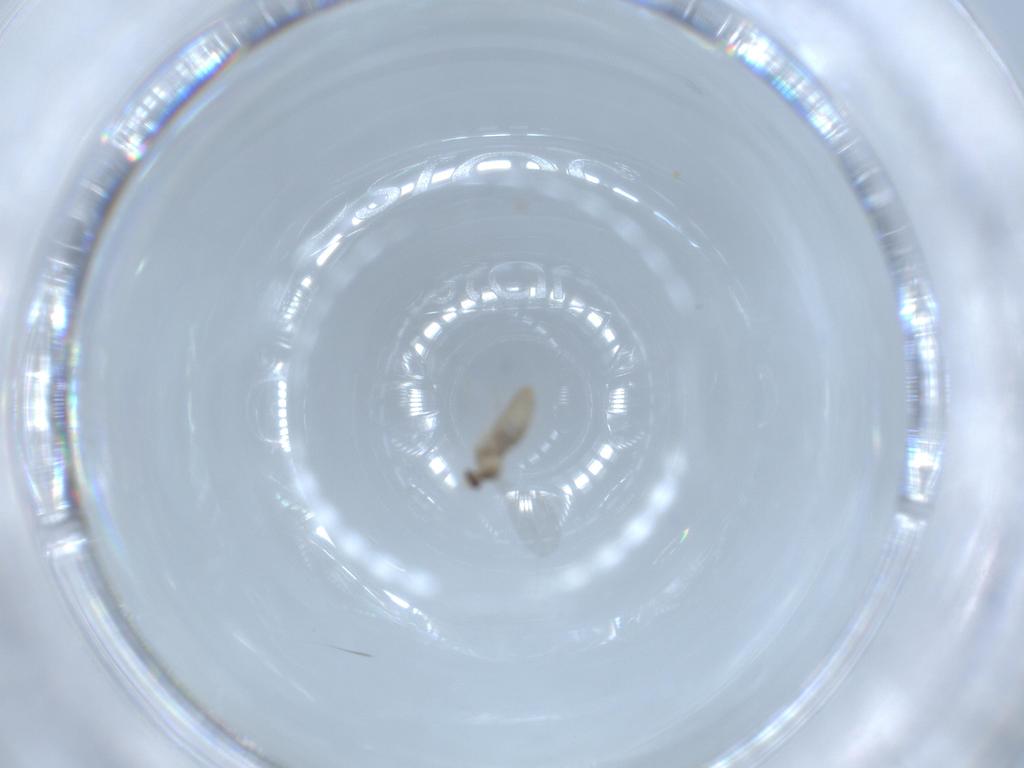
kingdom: Animalia
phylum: Arthropoda
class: Insecta
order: Diptera
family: Cecidomyiidae
